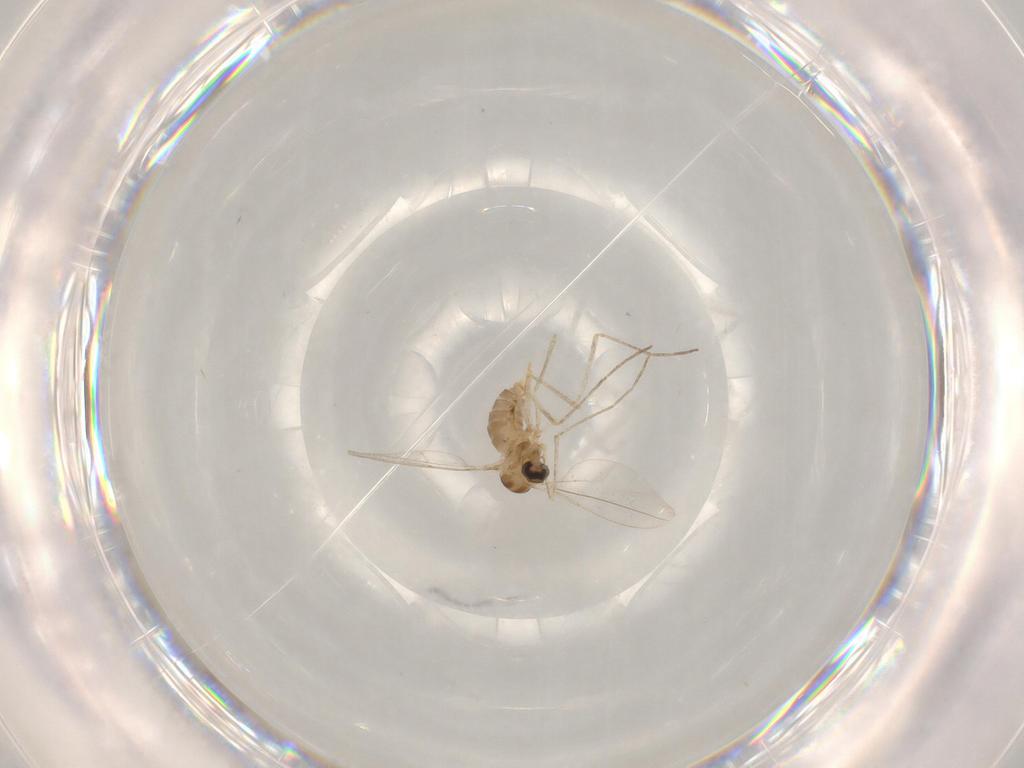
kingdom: Animalia
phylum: Arthropoda
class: Insecta
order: Diptera
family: Cecidomyiidae
